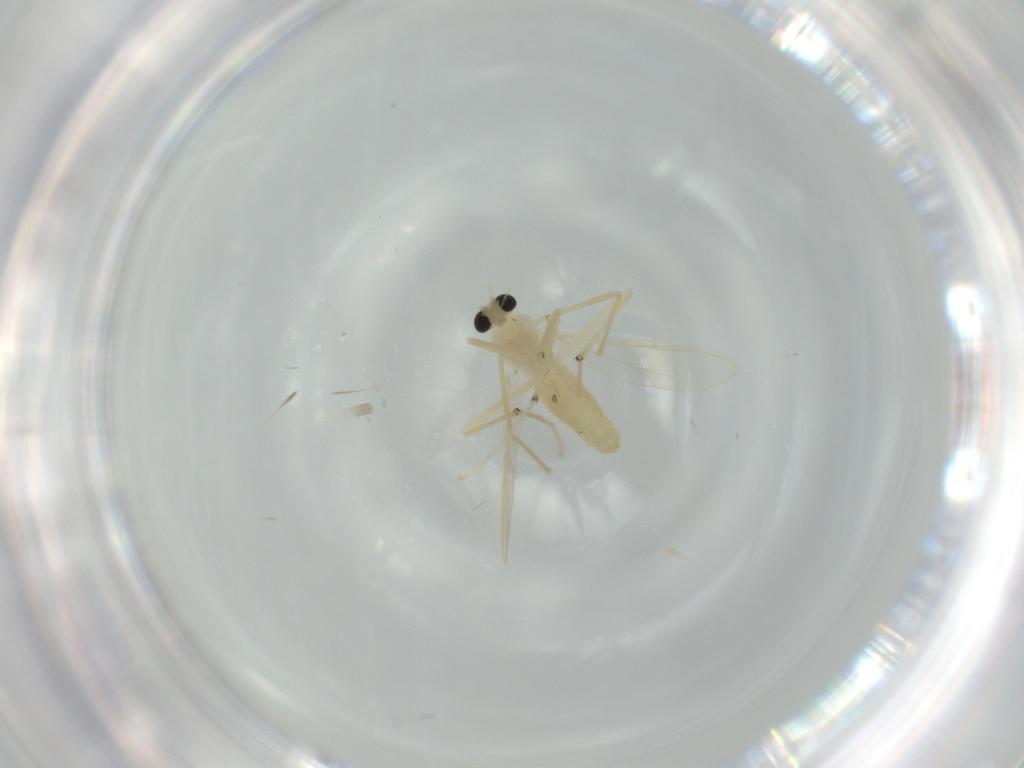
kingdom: Animalia
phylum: Arthropoda
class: Insecta
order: Diptera
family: Chironomidae
